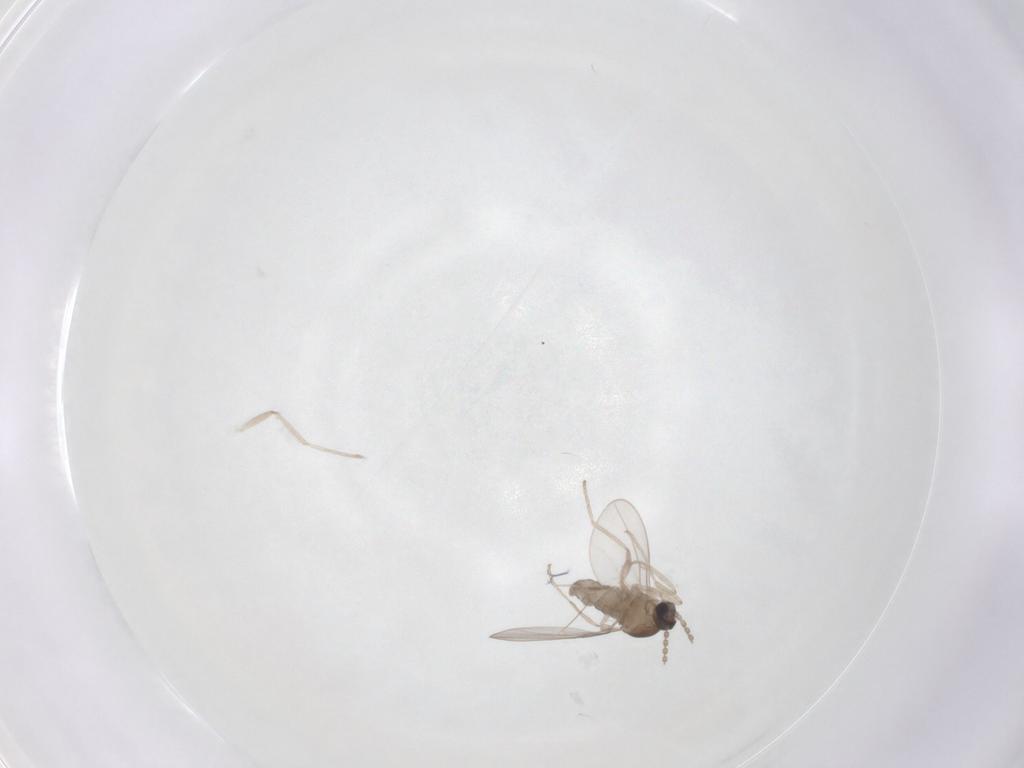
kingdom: Animalia
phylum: Arthropoda
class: Insecta
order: Diptera
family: Cecidomyiidae
